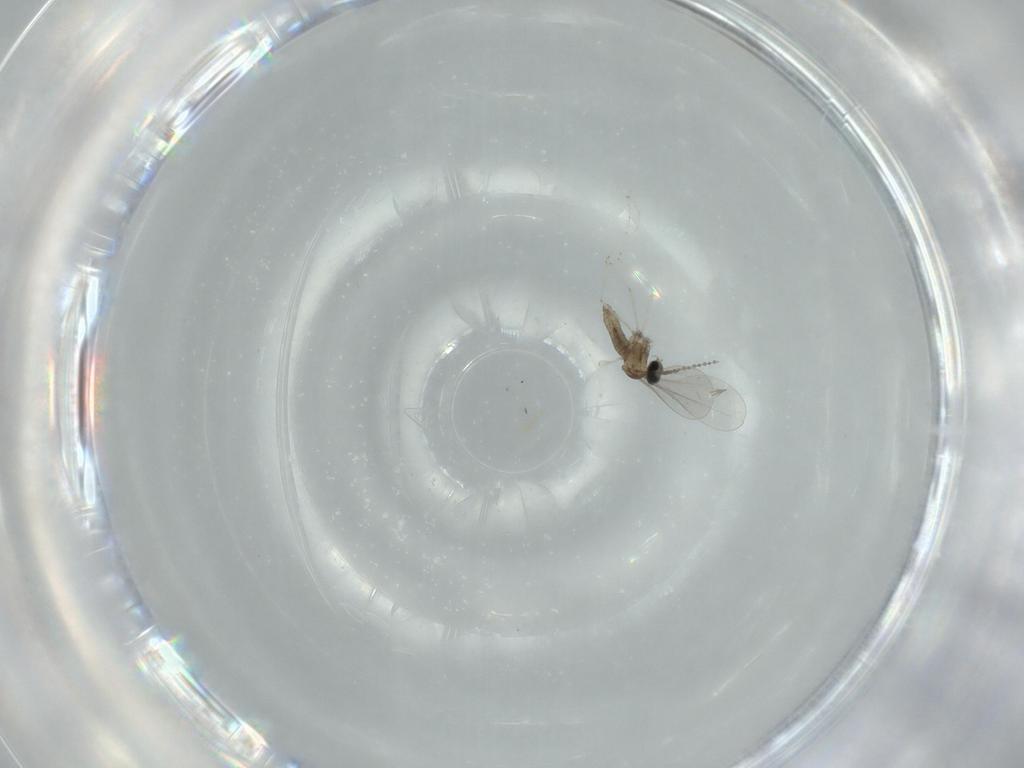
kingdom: Animalia
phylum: Arthropoda
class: Insecta
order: Diptera
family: Cecidomyiidae
